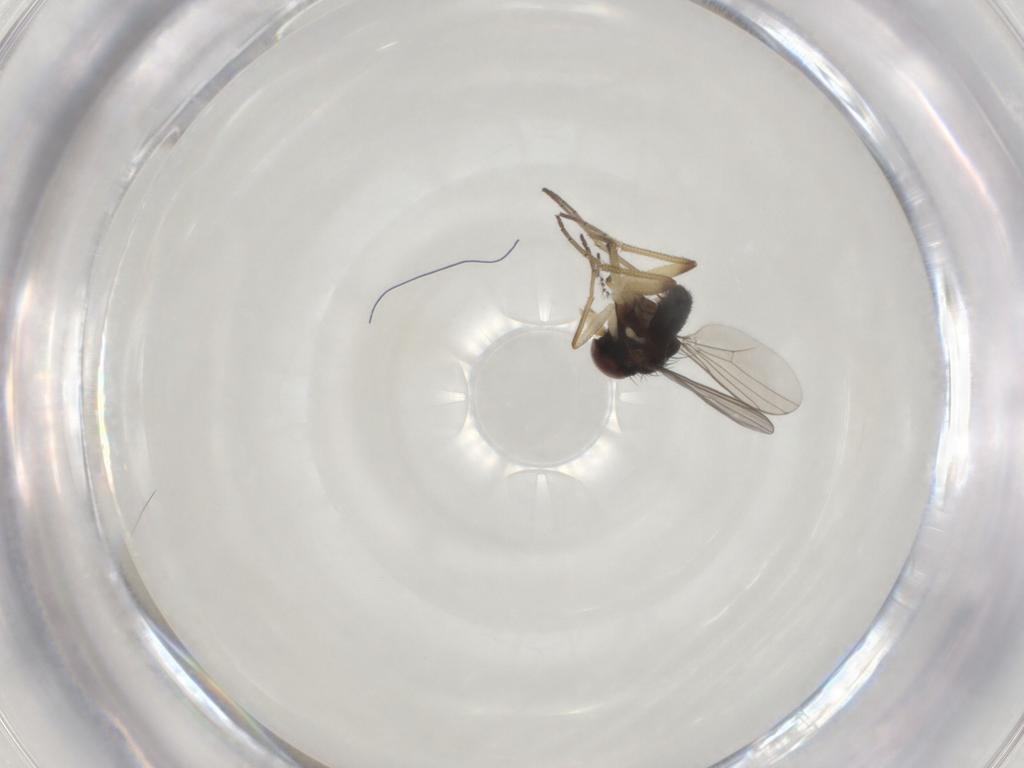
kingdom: Animalia
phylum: Arthropoda
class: Insecta
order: Diptera
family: Dolichopodidae
